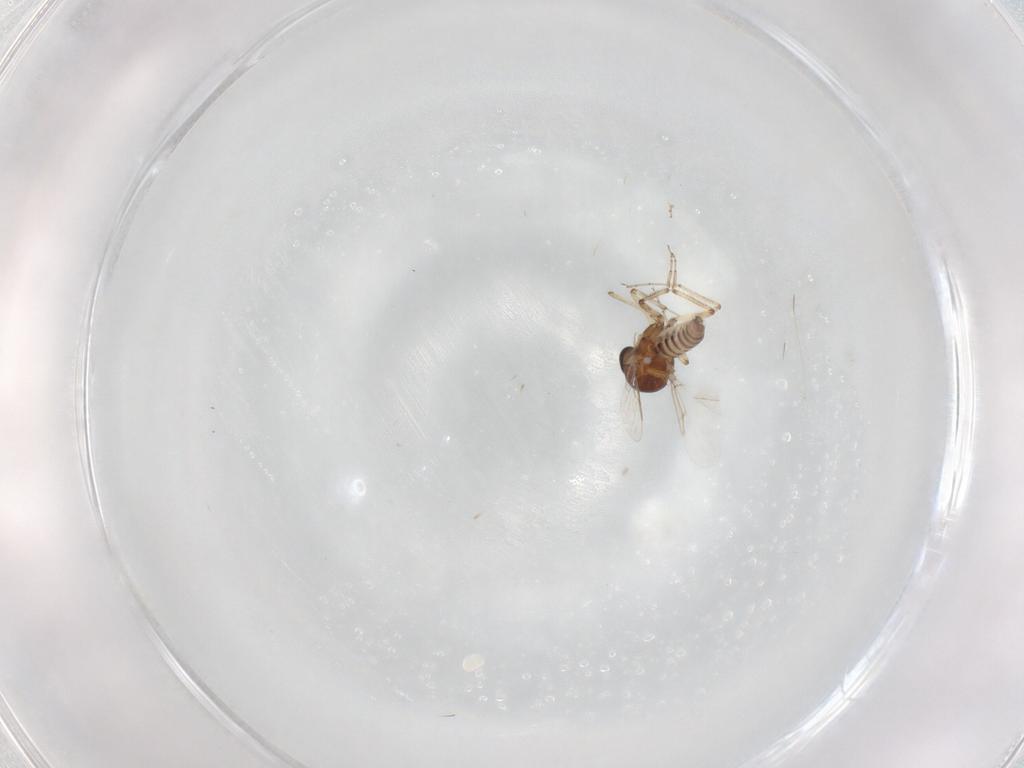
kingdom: Animalia
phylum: Arthropoda
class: Insecta
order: Diptera
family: Ceratopogonidae
